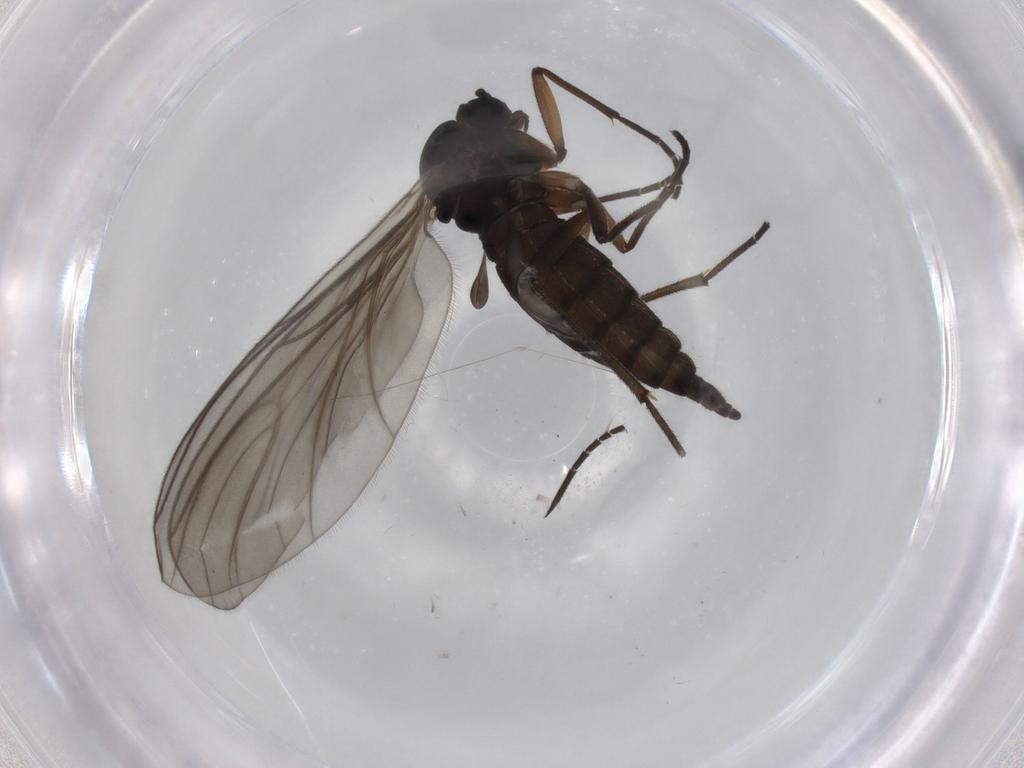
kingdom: Animalia
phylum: Arthropoda
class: Insecta
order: Diptera
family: Sciaridae
